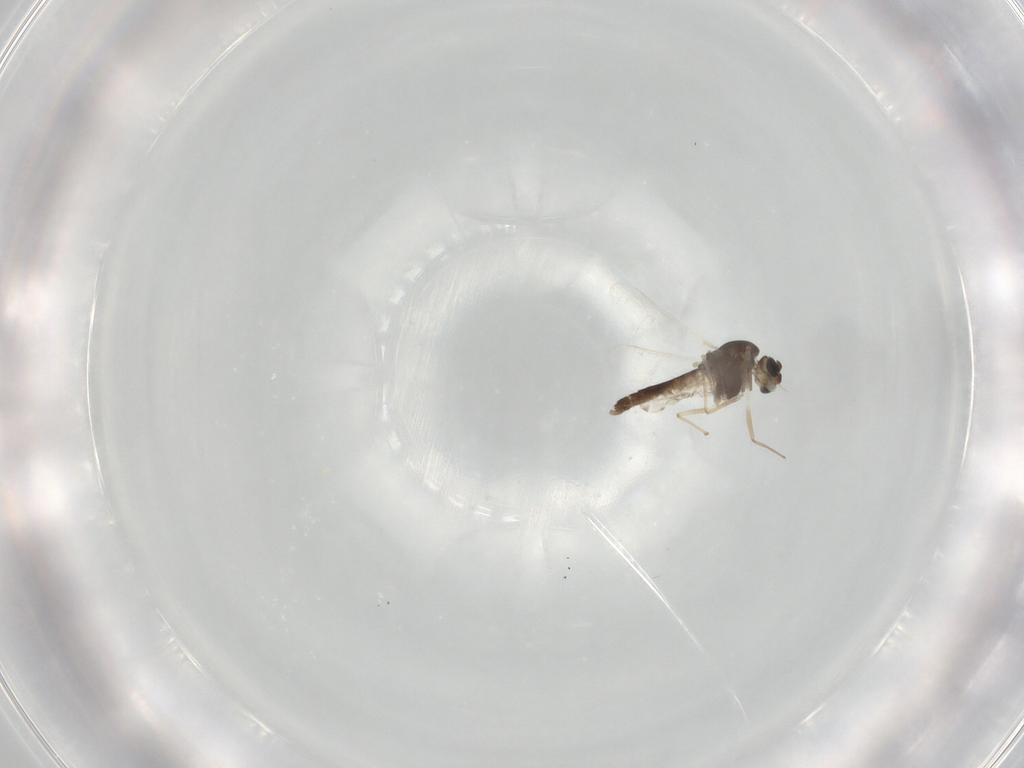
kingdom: Animalia
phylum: Arthropoda
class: Insecta
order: Diptera
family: Chironomidae
